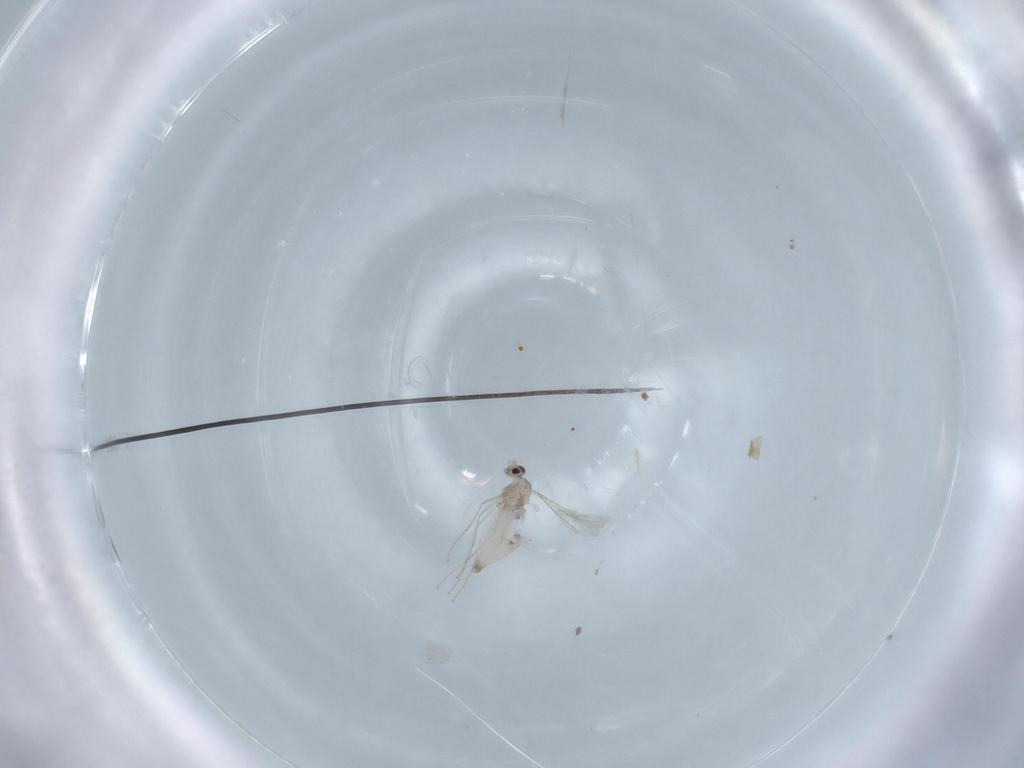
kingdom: Animalia
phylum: Arthropoda
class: Insecta
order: Diptera
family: Cecidomyiidae
